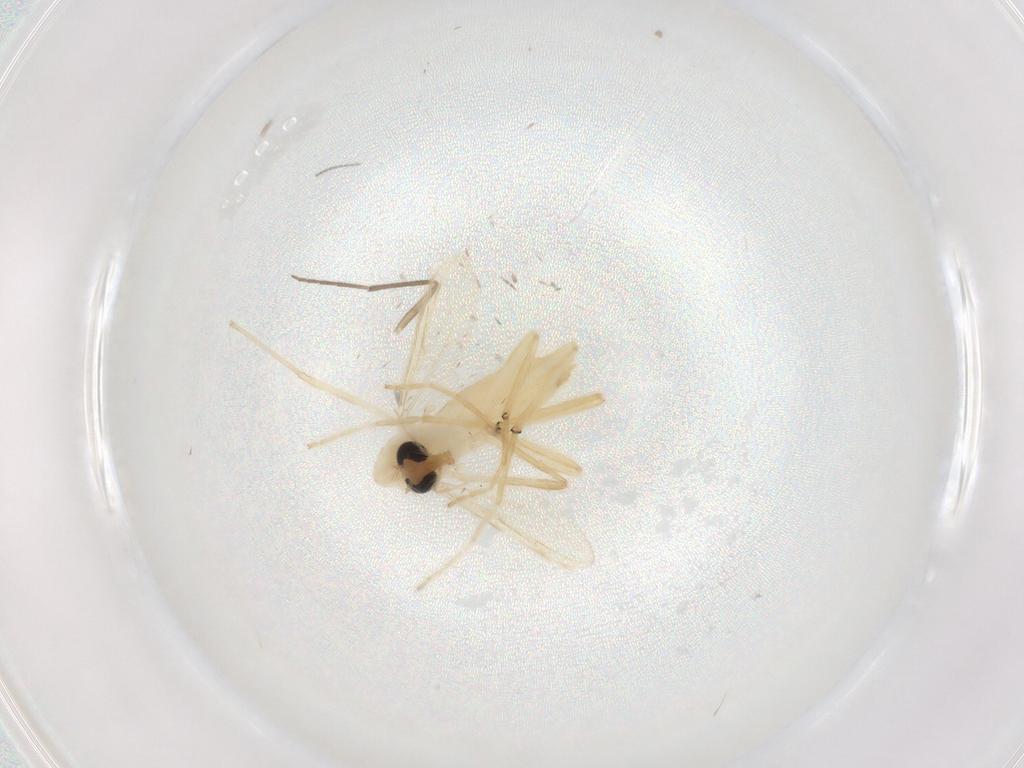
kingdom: Animalia
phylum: Arthropoda
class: Insecta
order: Diptera
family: Chironomidae
